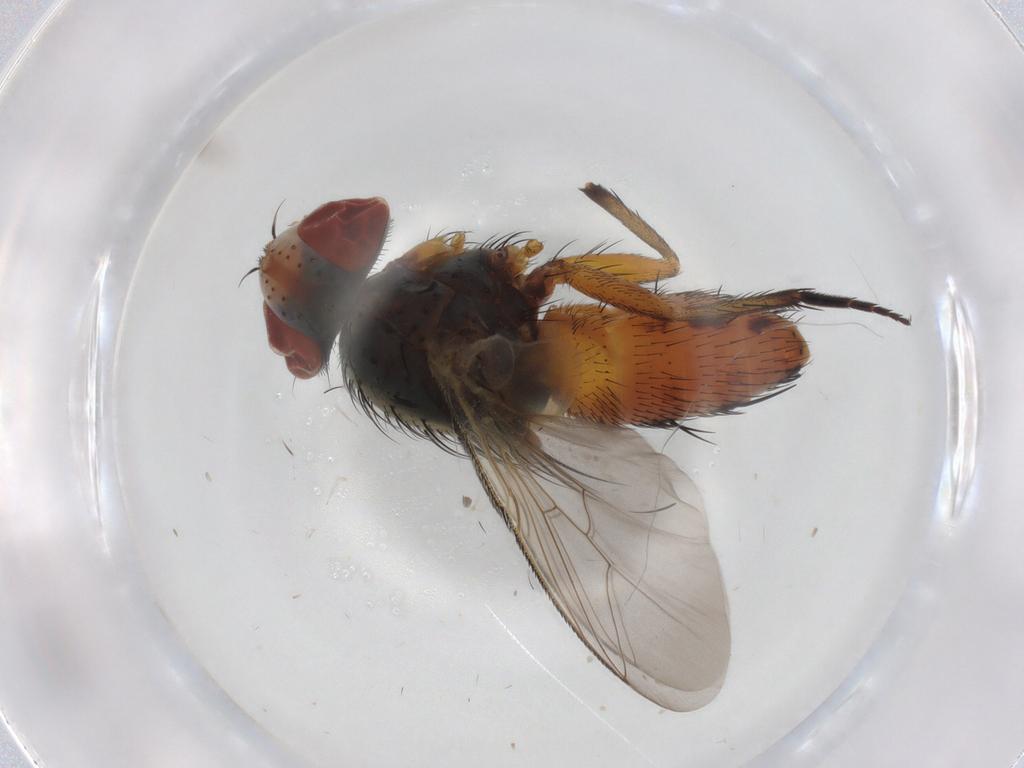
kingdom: Animalia
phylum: Arthropoda
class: Insecta
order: Diptera
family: Sarcophagidae
